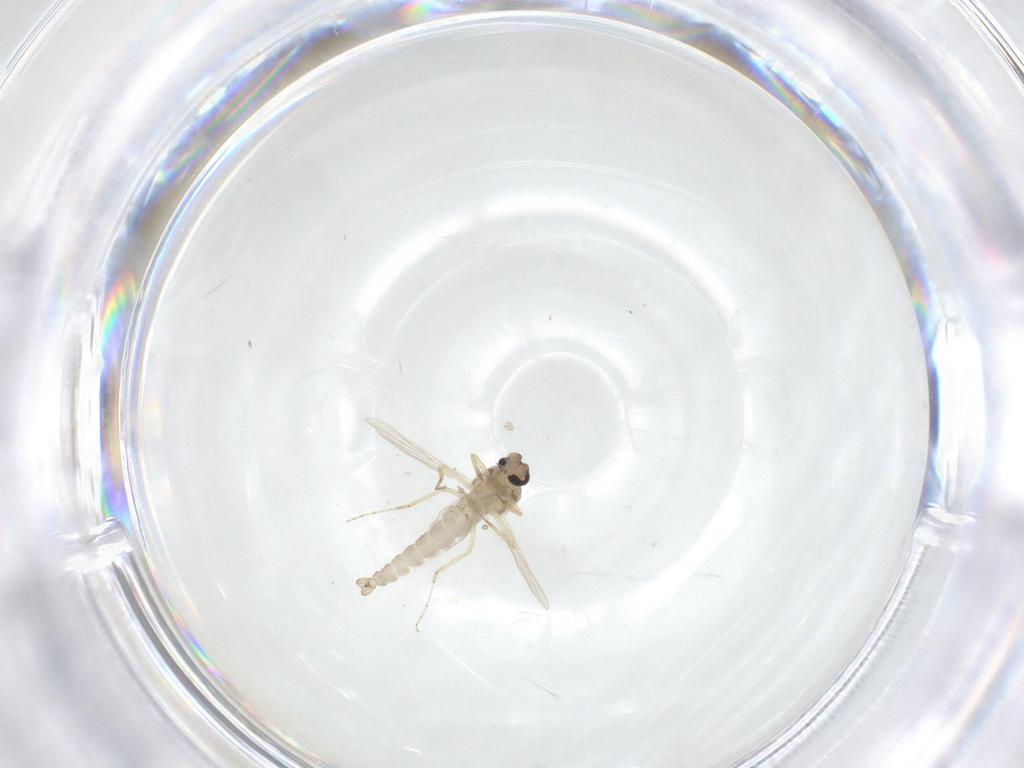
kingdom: Animalia
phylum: Arthropoda
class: Insecta
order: Diptera
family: Ceratopogonidae
